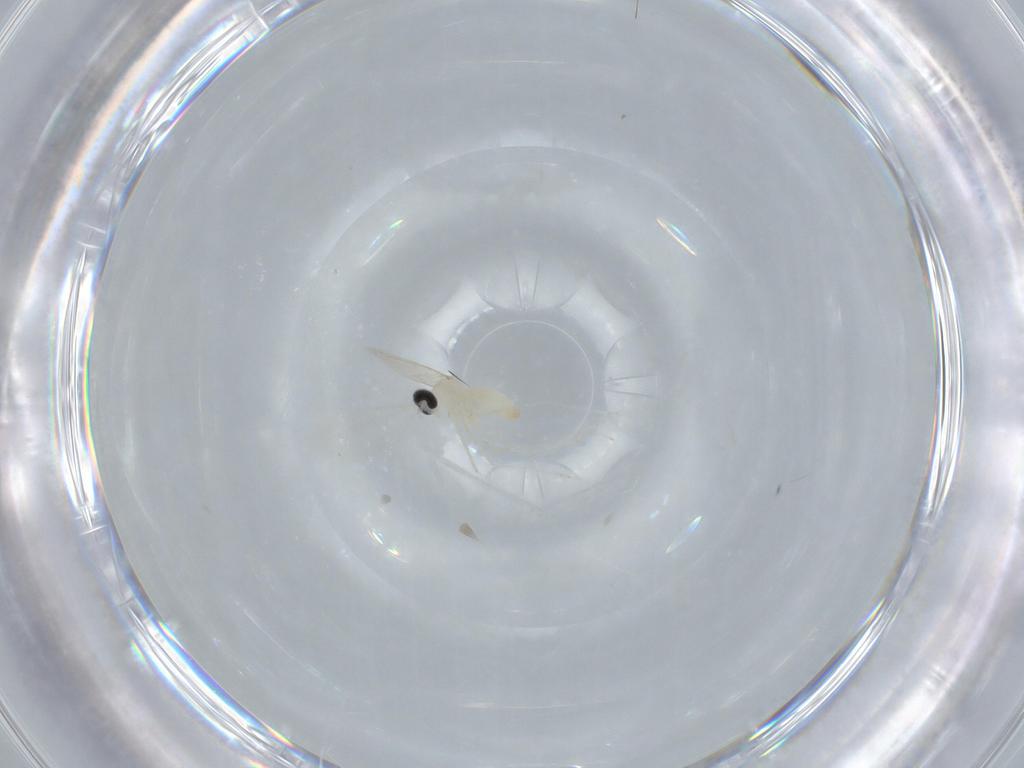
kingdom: Animalia
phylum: Arthropoda
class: Insecta
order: Diptera
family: Cecidomyiidae
